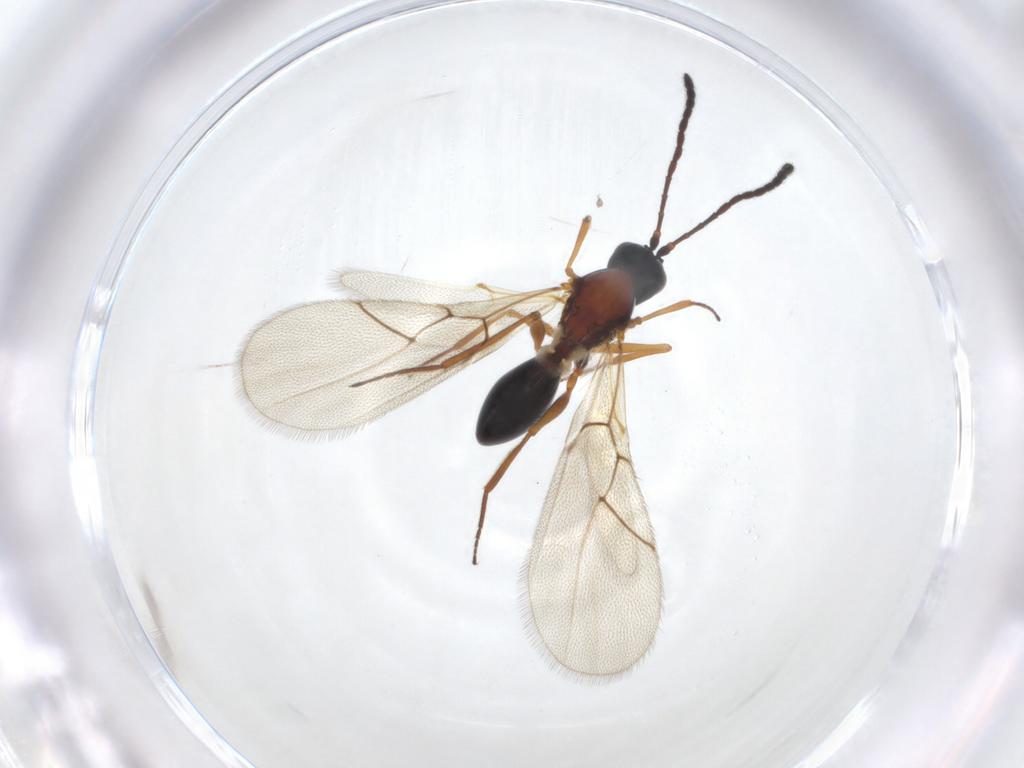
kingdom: Animalia
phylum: Arthropoda
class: Insecta
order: Hymenoptera
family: Figitidae
